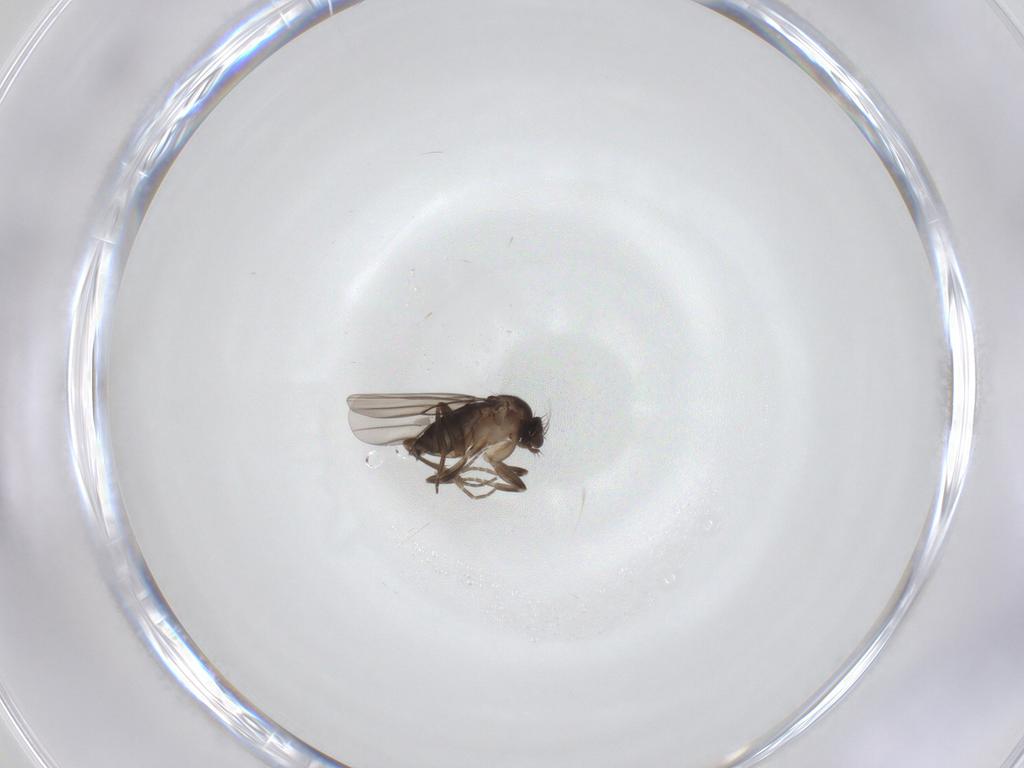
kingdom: Animalia
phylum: Arthropoda
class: Insecta
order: Diptera
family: Phoridae
